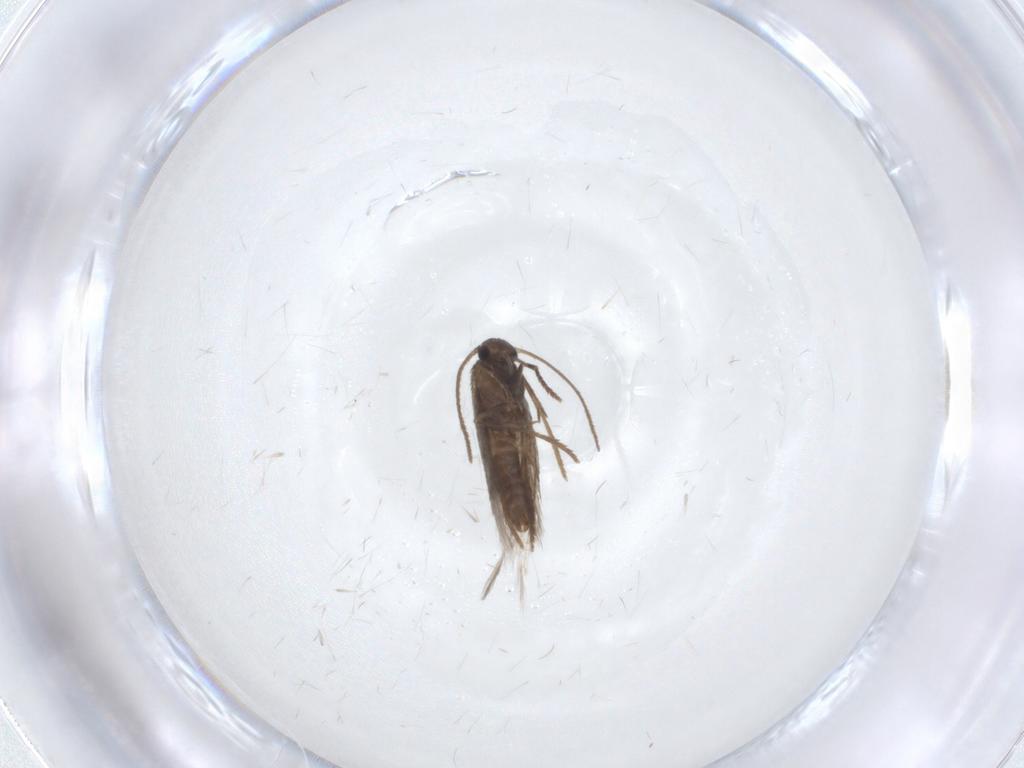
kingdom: Animalia
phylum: Arthropoda
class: Insecta
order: Lepidoptera
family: Heliozelidae
